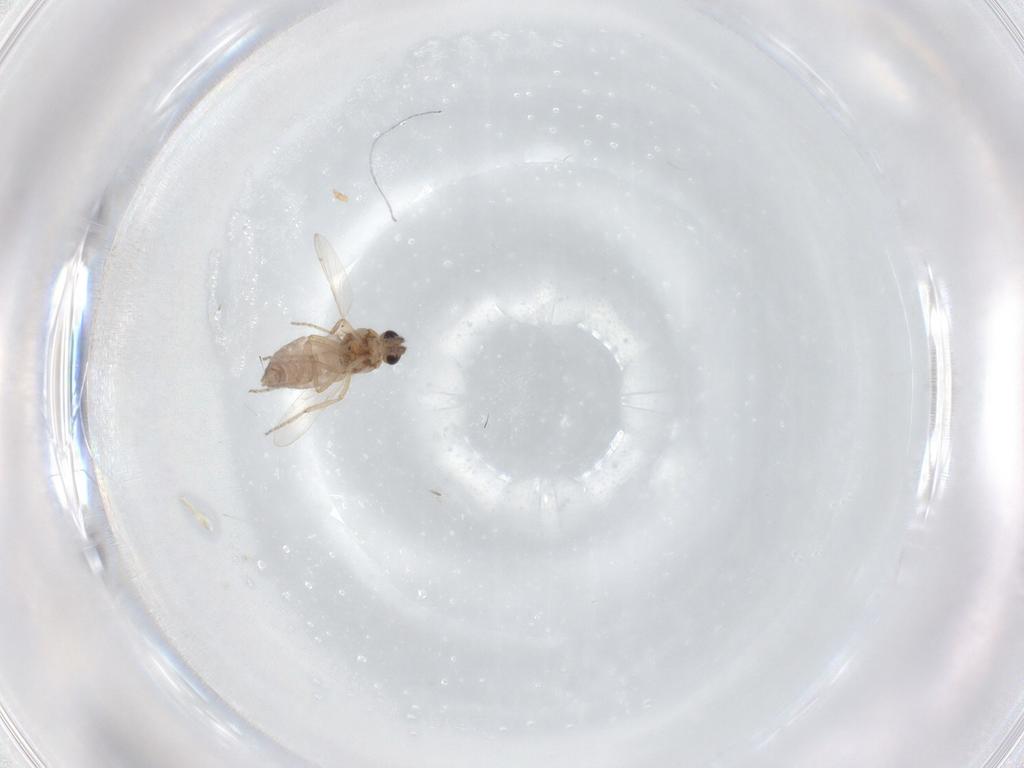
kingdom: Animalia
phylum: Arthropoda
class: Insecta
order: Diptera
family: Ceratopogonidae
